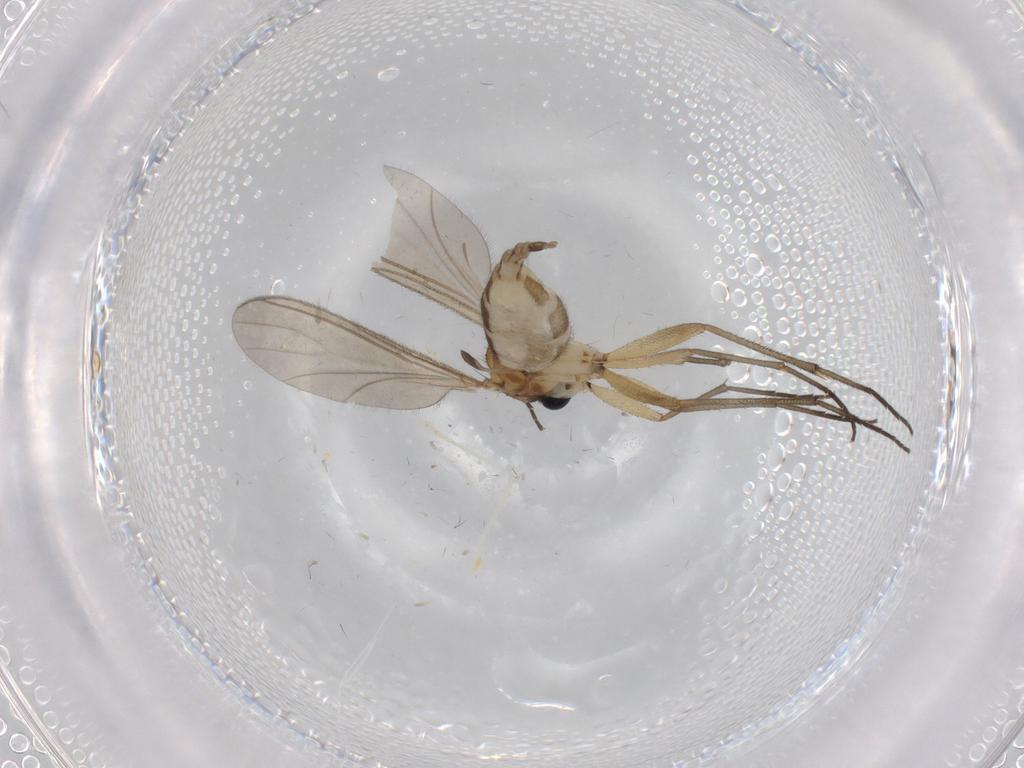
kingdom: Animalia
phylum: Arthropoda
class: Insecta
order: Diptera
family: Cecidomyiidae
